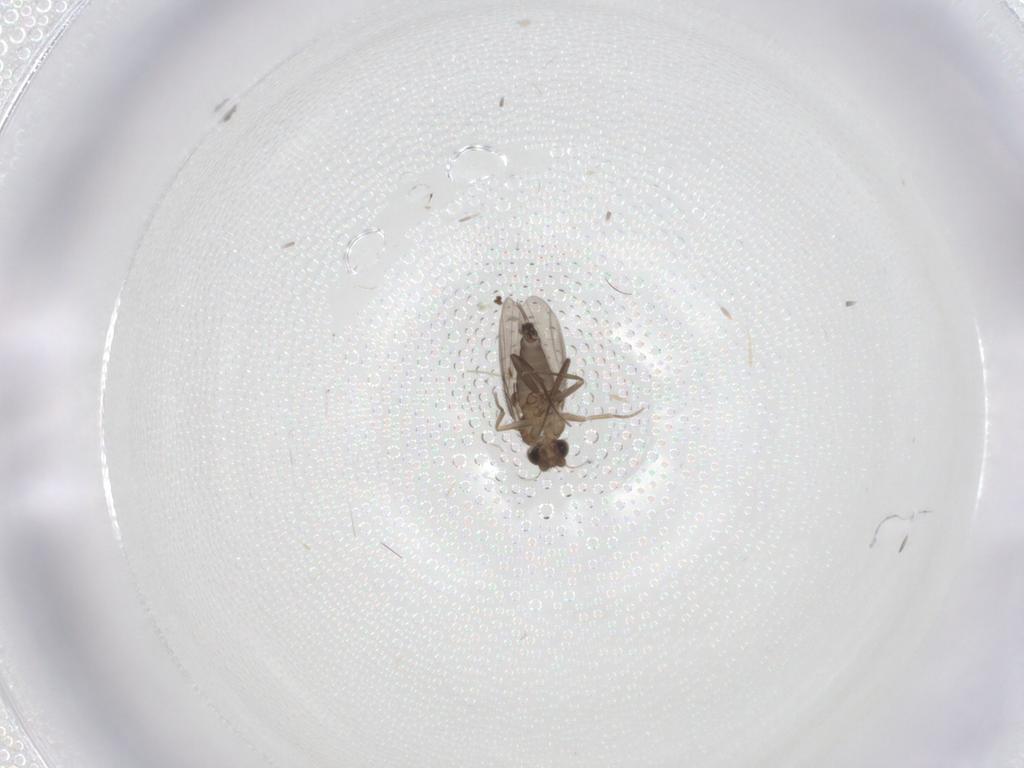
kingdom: Animalia
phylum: Arthropoda
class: Insecta
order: Diptera
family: Phoridae
